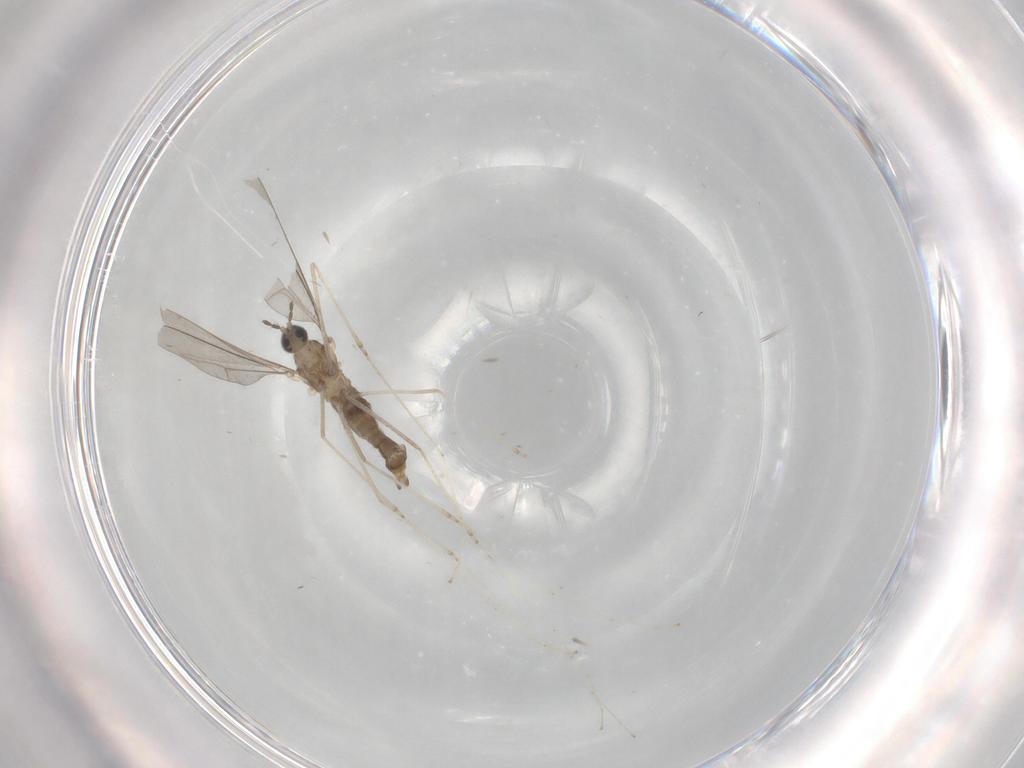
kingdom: Animalia
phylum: Arthropoda
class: Insecta
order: Diptera
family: Cecidomyiidae
